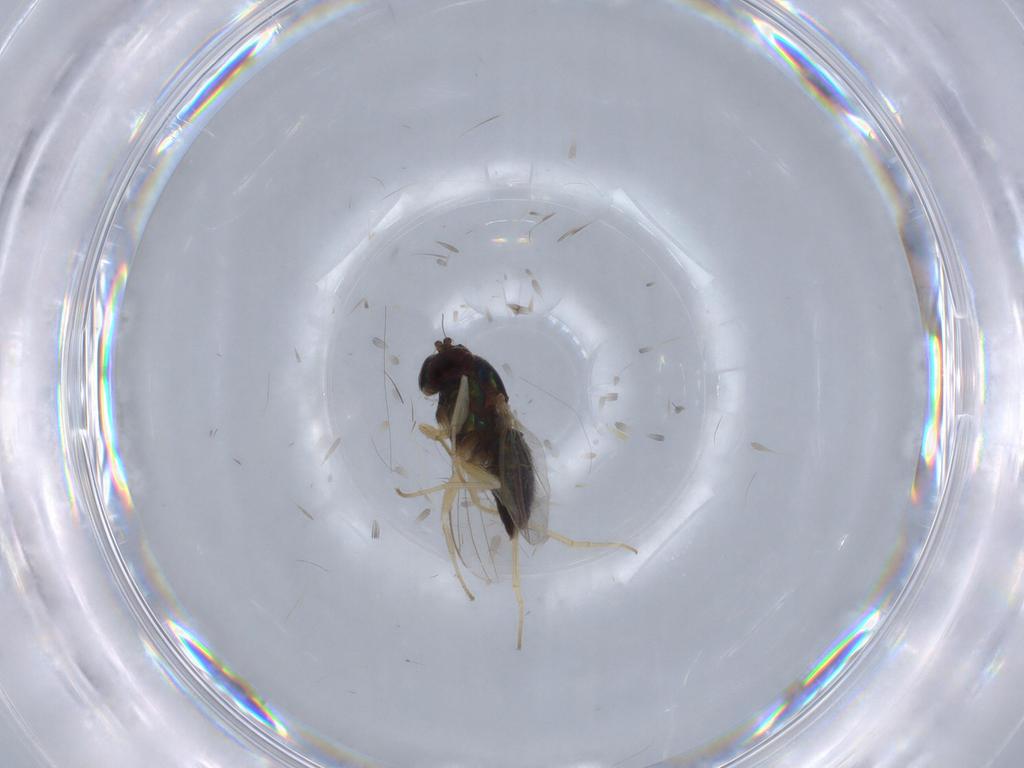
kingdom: Animalia
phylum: Arthropoda
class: Insecta
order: Diptera
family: Dolichopodidae
